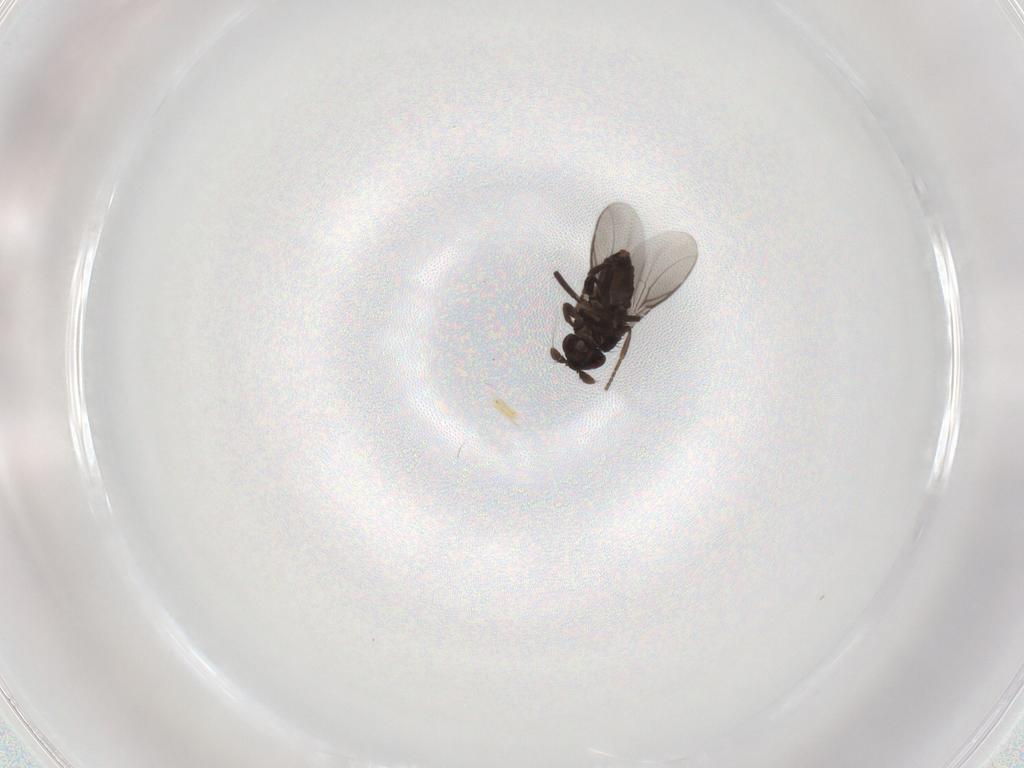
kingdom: Animalia
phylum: Arthropoda
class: Insecta
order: Diptera
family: Sphaeroceridae
